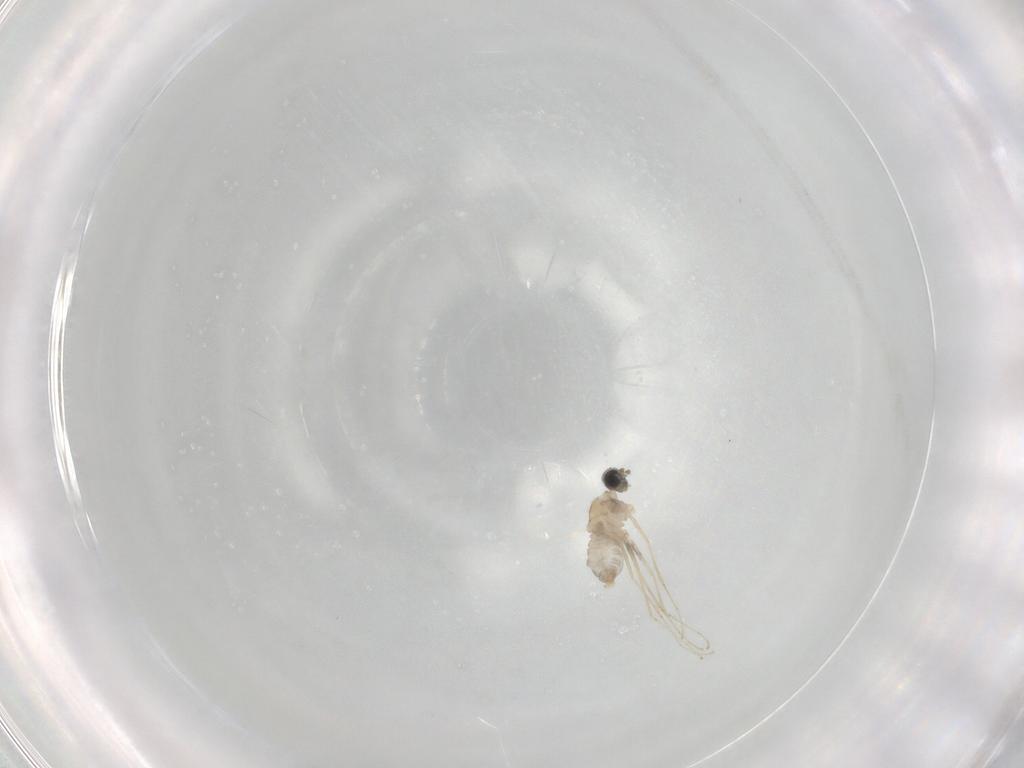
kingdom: Animalia
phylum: Arthropoda
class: Insecta
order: Diptera
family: Cecidomyiidae
